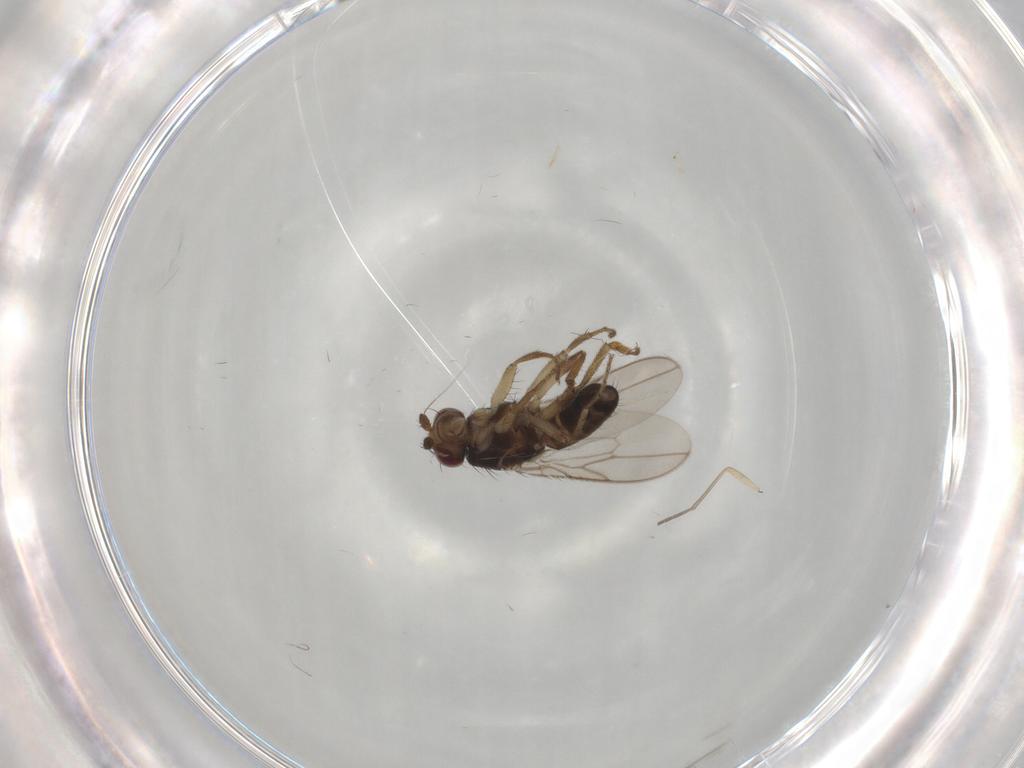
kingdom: Animalia
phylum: Arthropoda
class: Insecta
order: Diptera
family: Sphaeroceridae
